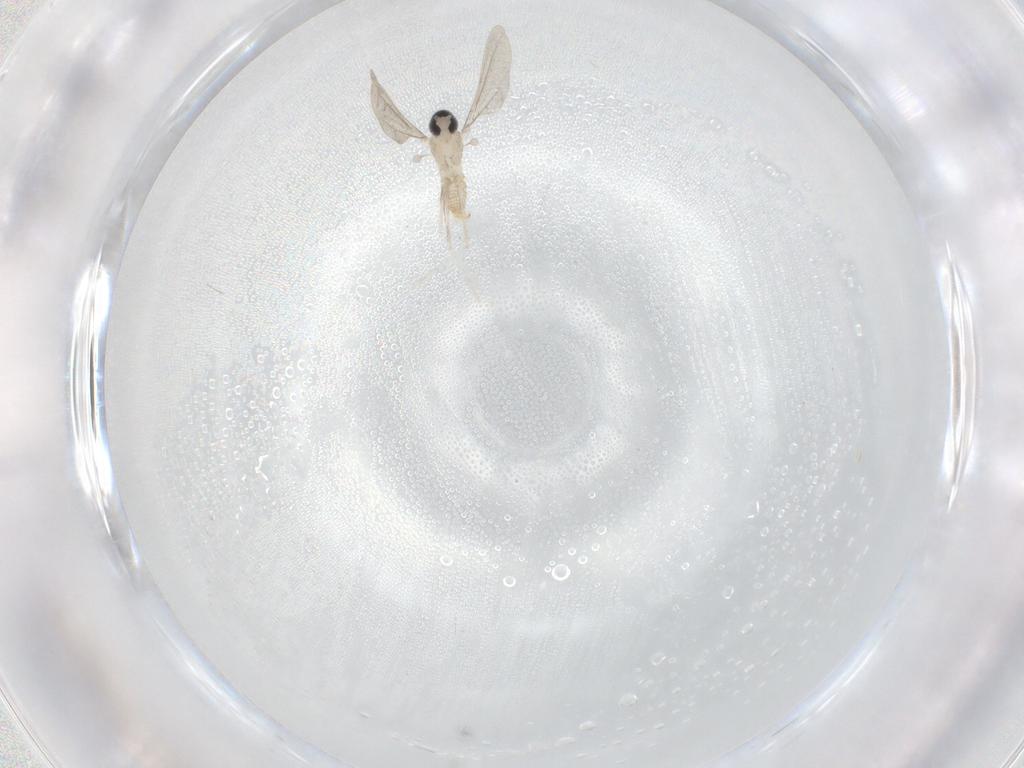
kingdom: Animalia
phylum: Arthropoda
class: Insecta
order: Diptera
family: Cecidomyiidae
